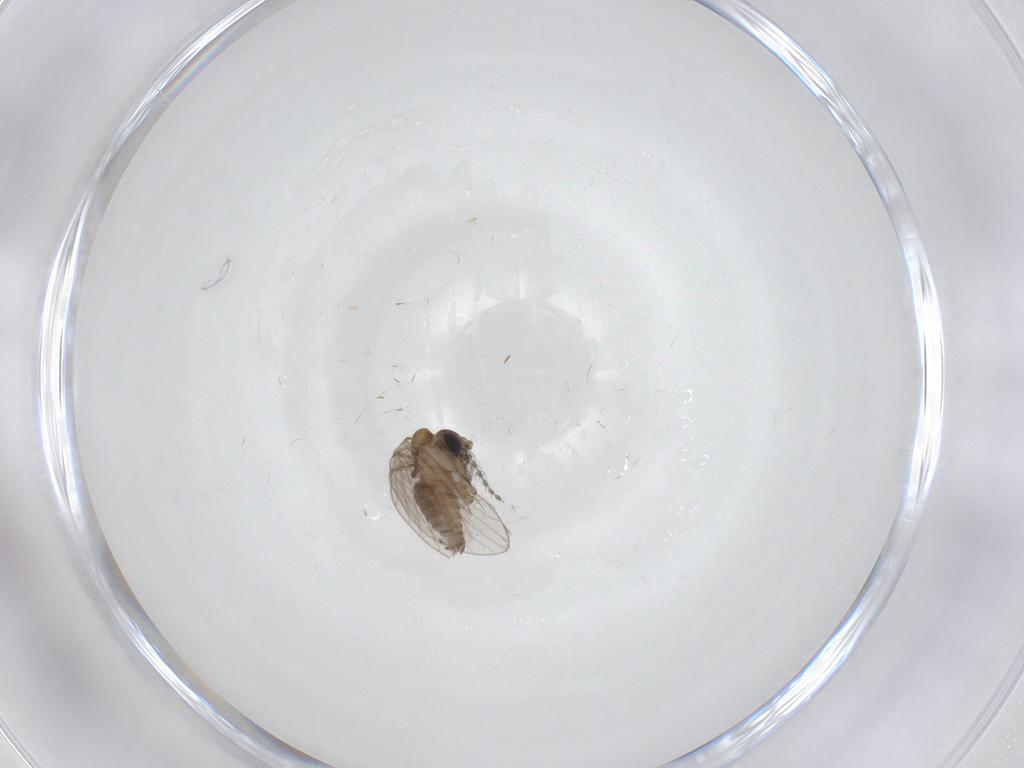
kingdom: Animalia
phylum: Arthropoda
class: Insecta
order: Diptera
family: Psychodidae
